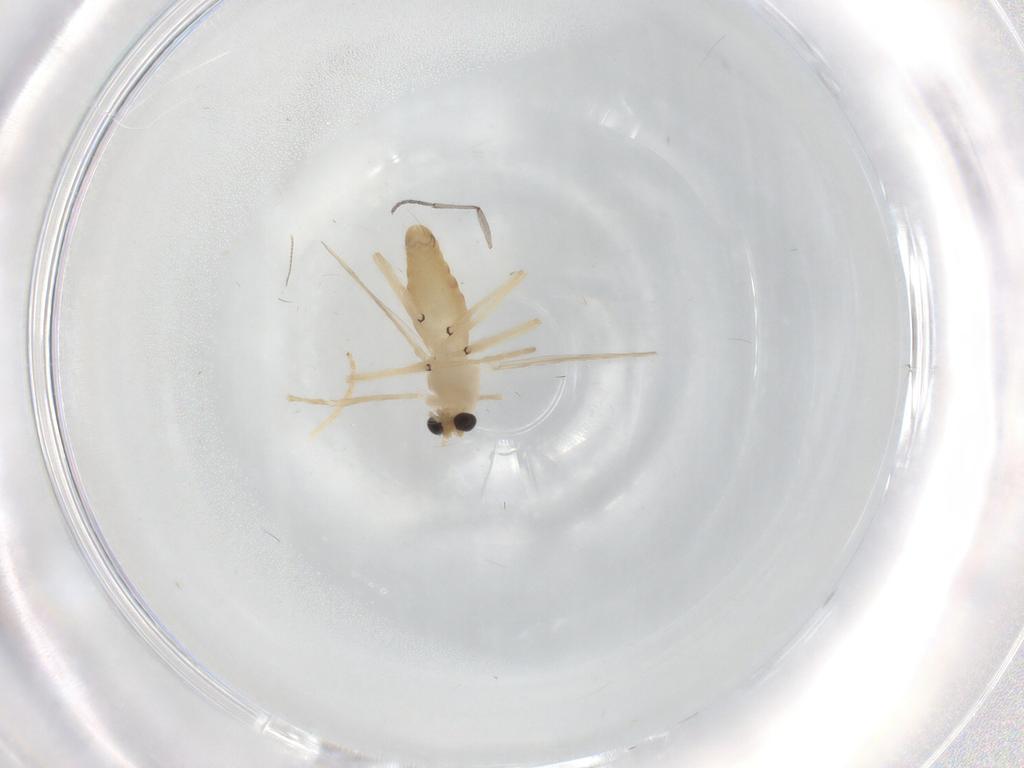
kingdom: Animalia
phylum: Arthropoda
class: Insecta
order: Diptera
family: Chironomidae
